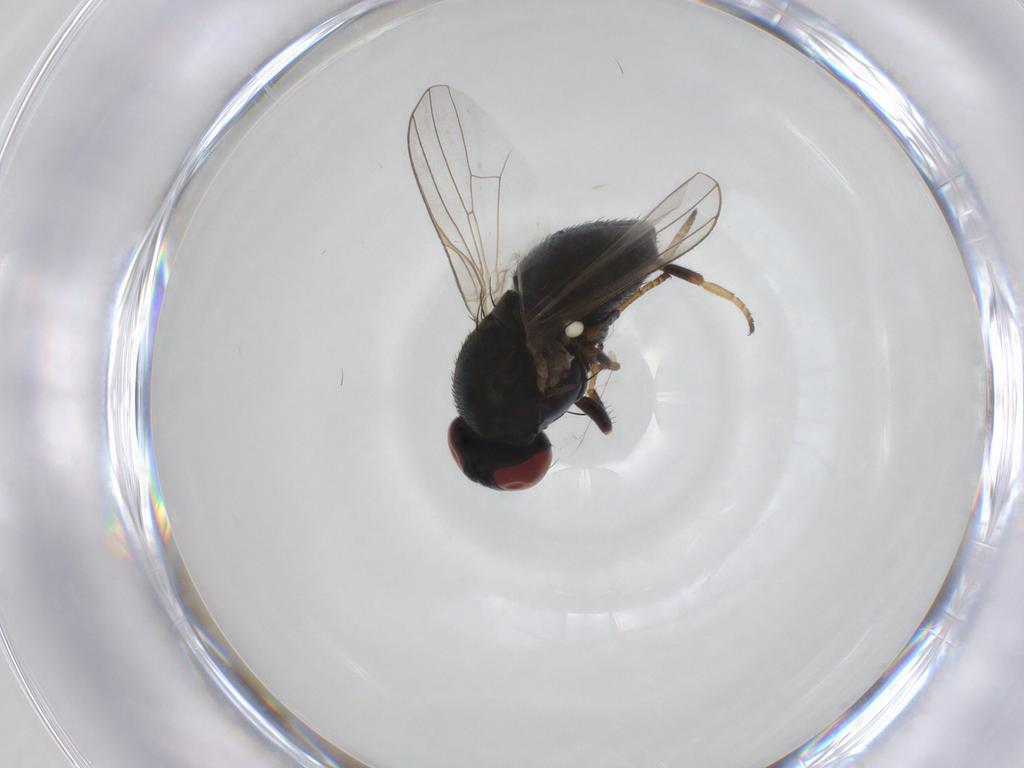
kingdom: Animalia
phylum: Arthropoda
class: Insecta
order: Diptera
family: Chamaemyiidae
